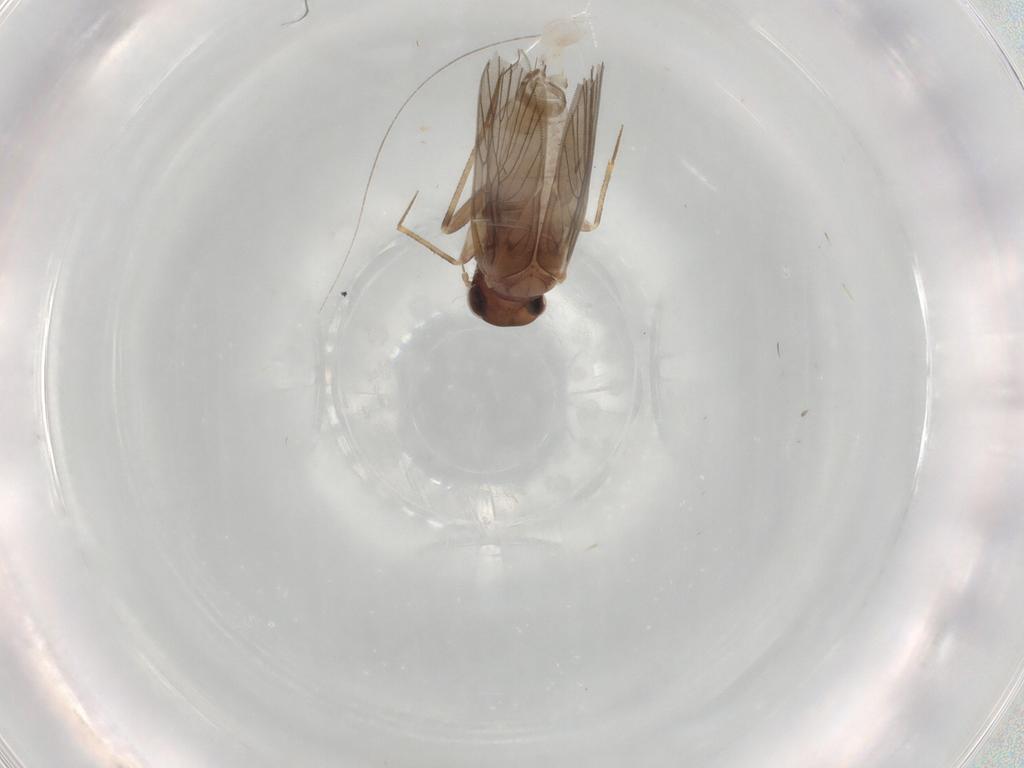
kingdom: Animalia
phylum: Arthropoda
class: Insecta
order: Psocodea
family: Lepidopsocidae
